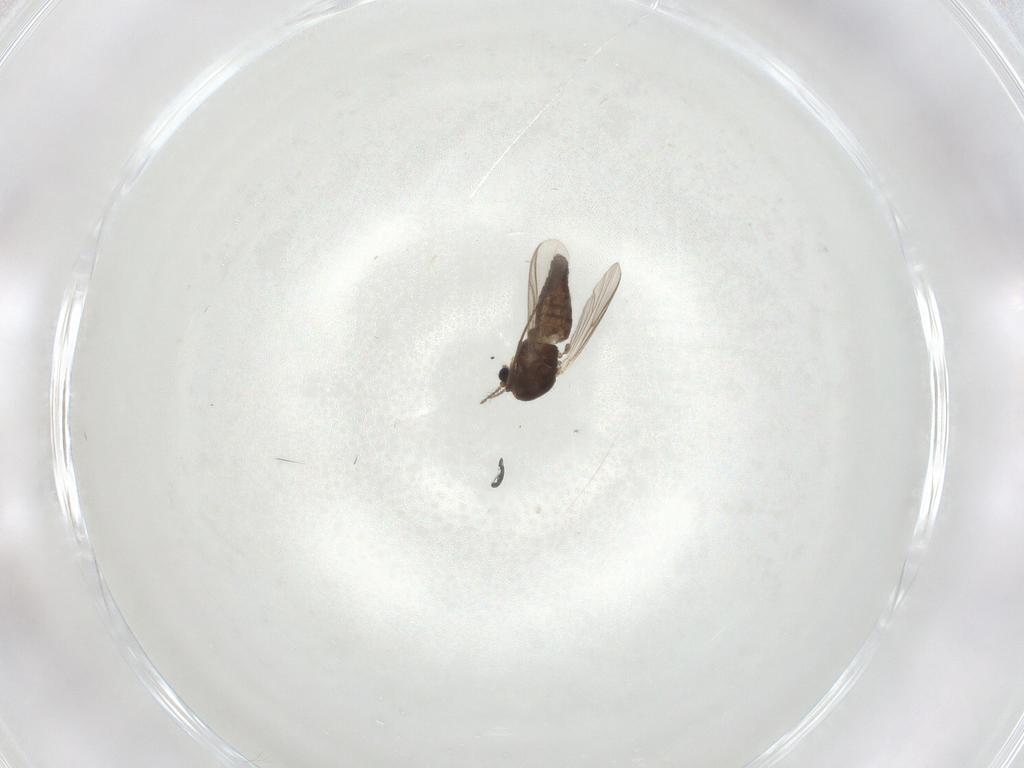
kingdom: Animalia
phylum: Arthropoda
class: Insecta
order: Diptera
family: Chironomidae
